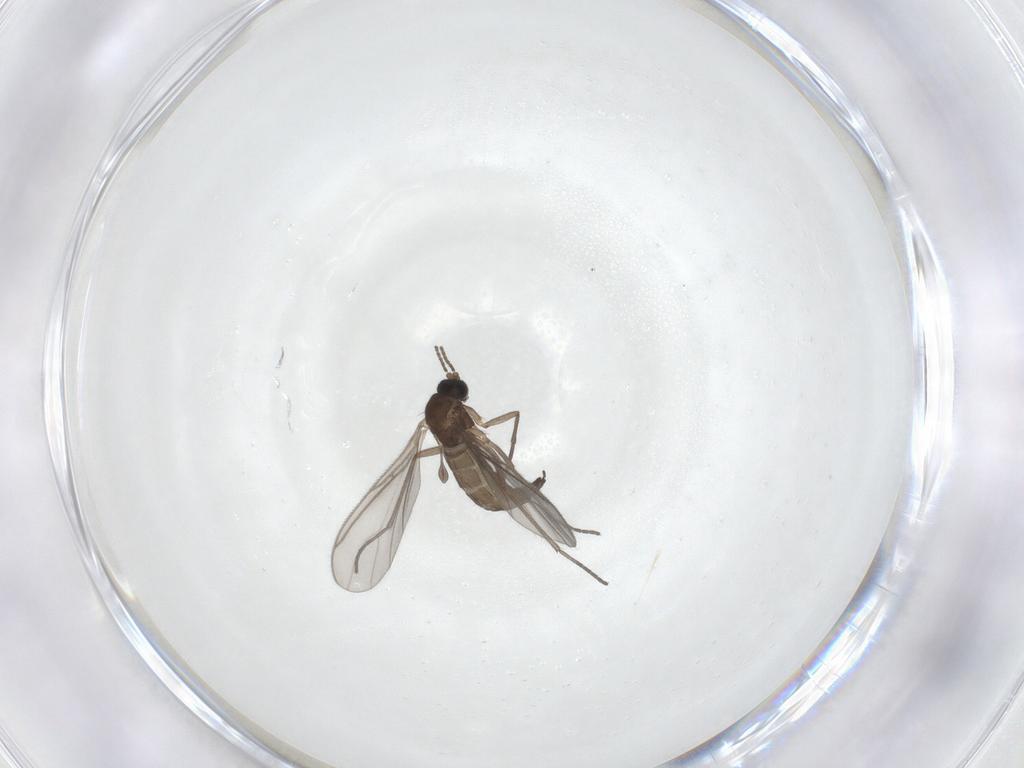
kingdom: Animalia
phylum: Arthropoda
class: Insecta
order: Diptera
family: Sciaridae
